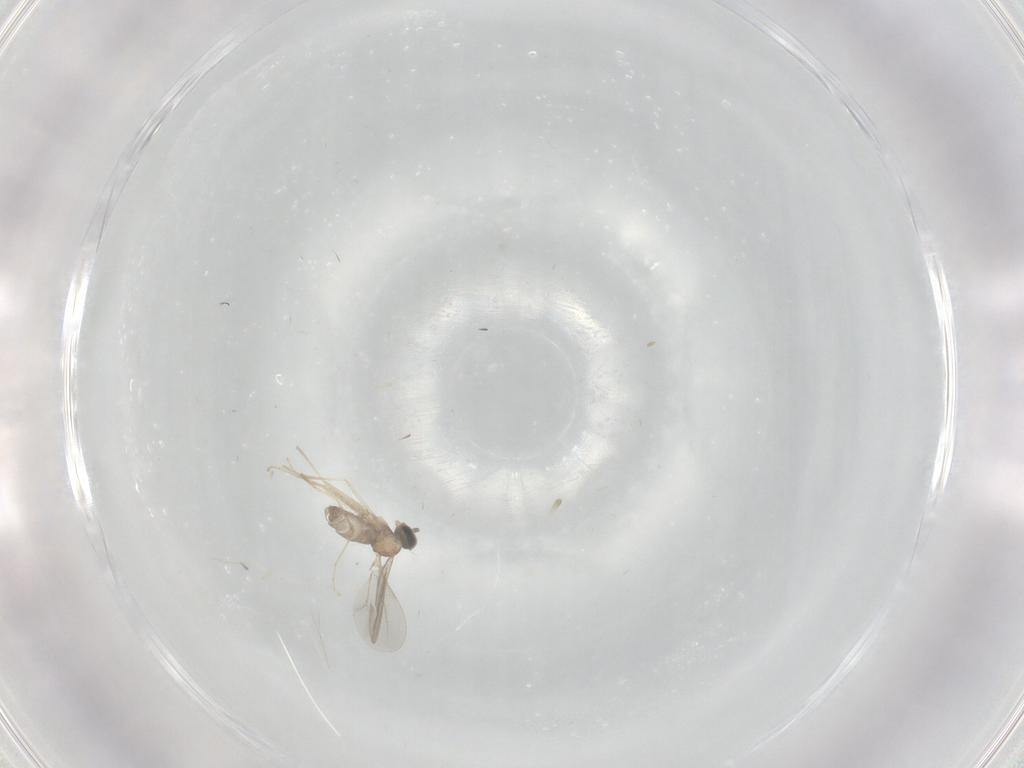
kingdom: Animalia
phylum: Arthropoda
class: Insecta
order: Diptera
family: Cecidomyiidae
